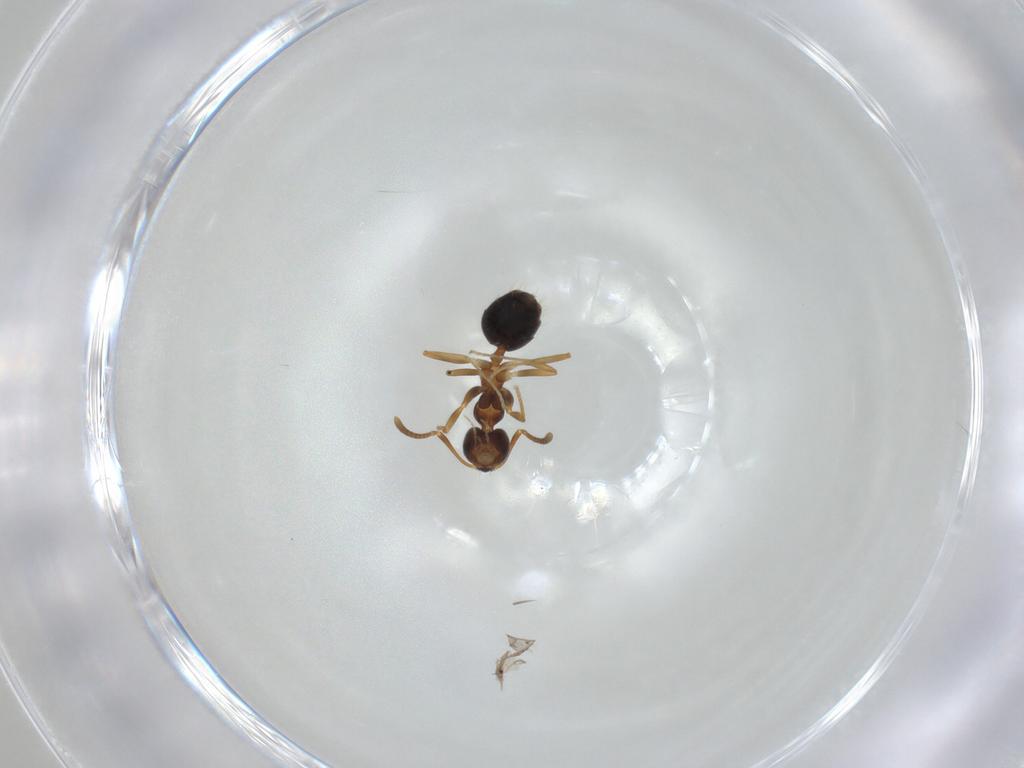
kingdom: Animalia
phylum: Arthropoda
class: Insecta
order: Hymenoptera
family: Formicidae
